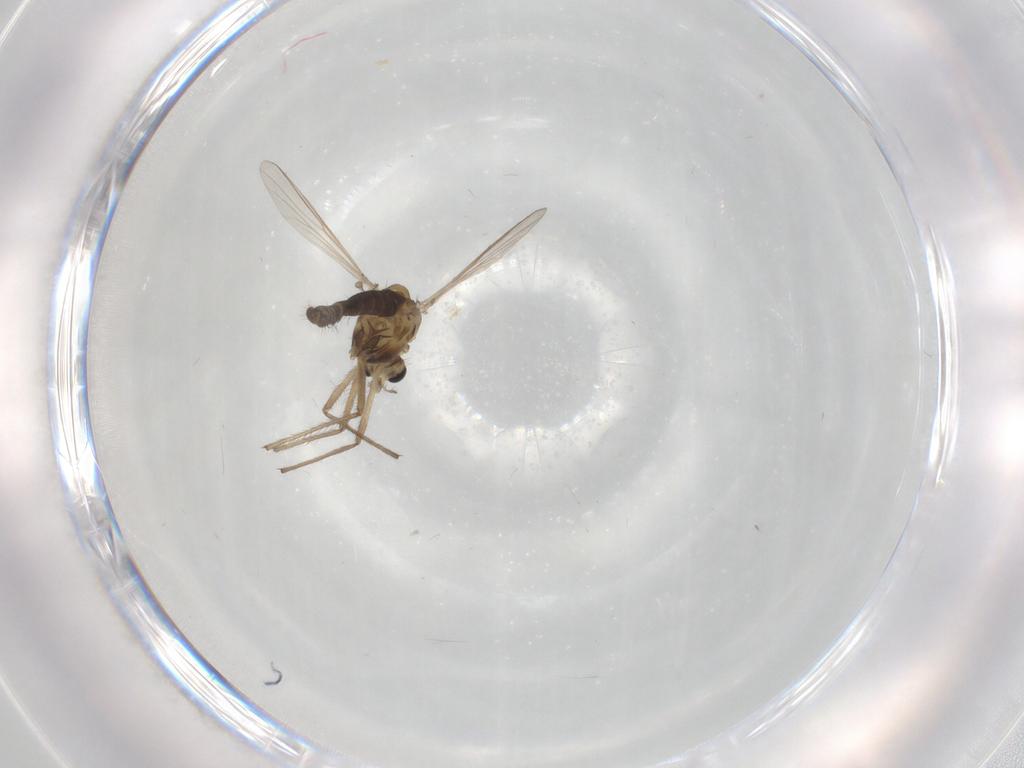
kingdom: Animalia
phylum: Arthropoda
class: Insecta
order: Diptera
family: Chironomidae
